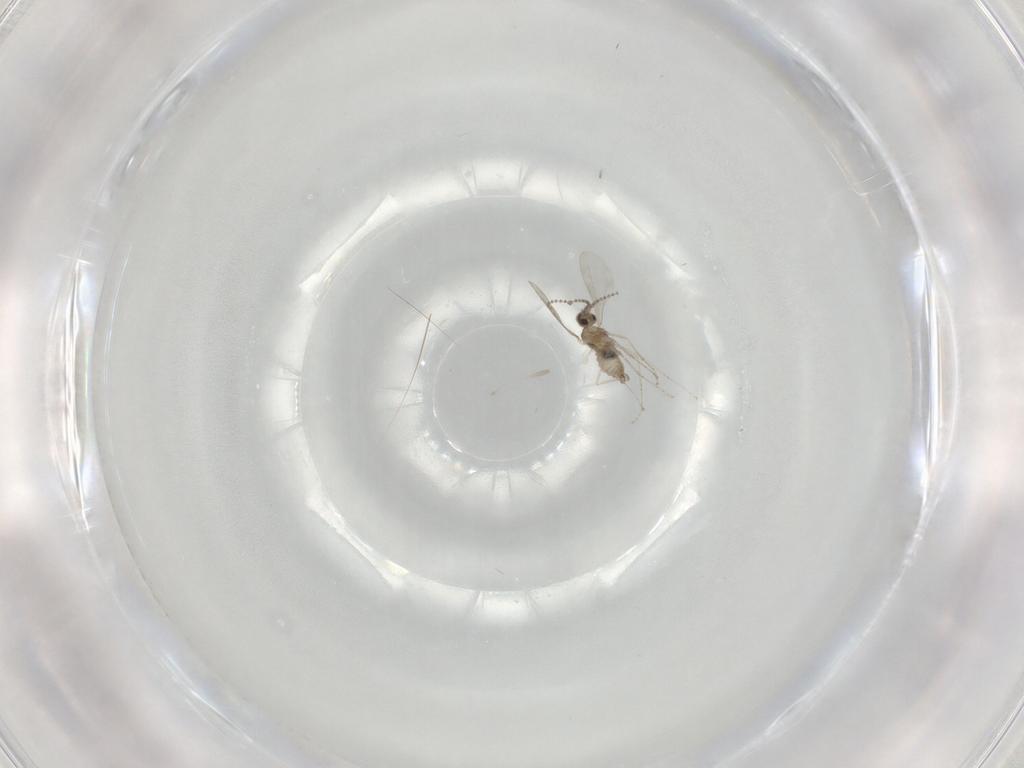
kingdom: Animalia
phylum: Arthropoda
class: Insecta
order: Diptera
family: Cecidomyiidae
